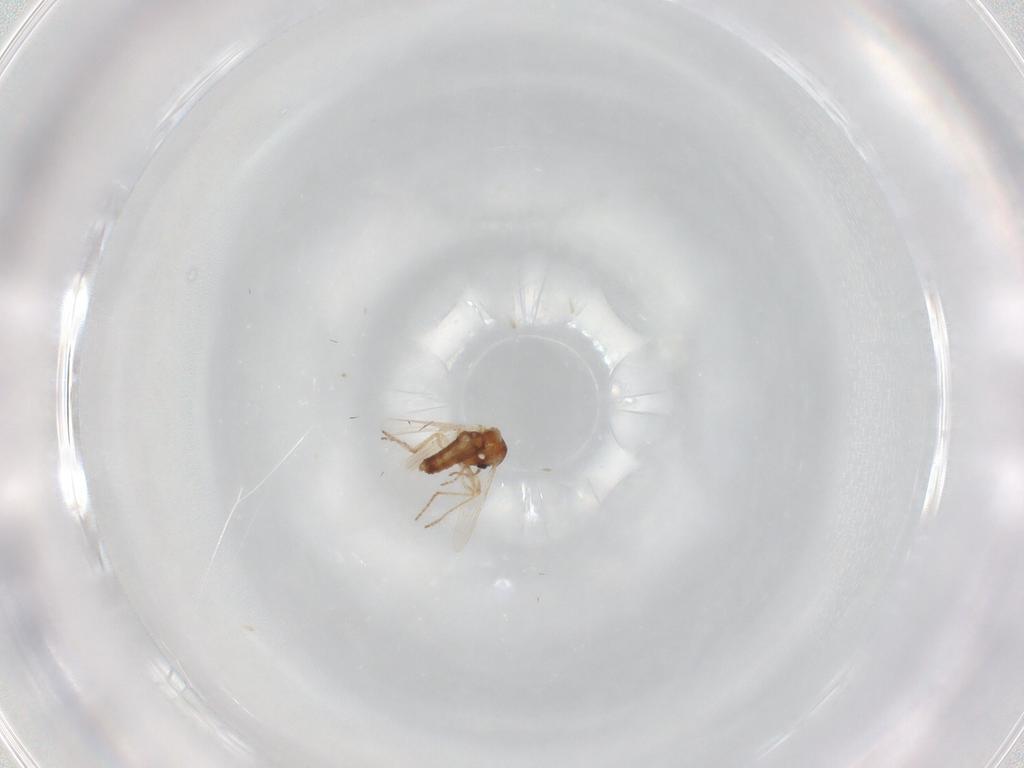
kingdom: Animalia
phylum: Arthropoda
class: Insecta
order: Diptera
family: Ceratopogonidae
